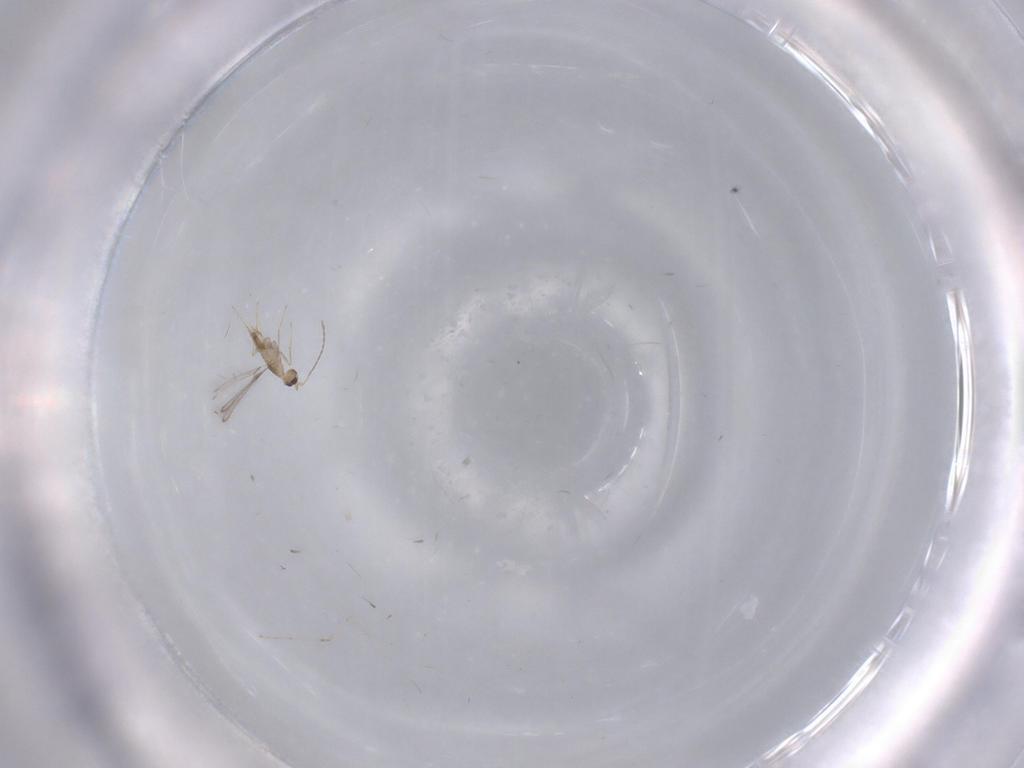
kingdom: Animalia
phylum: Arthropoda
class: Insecta
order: Hymenoptera
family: Mymaridae
